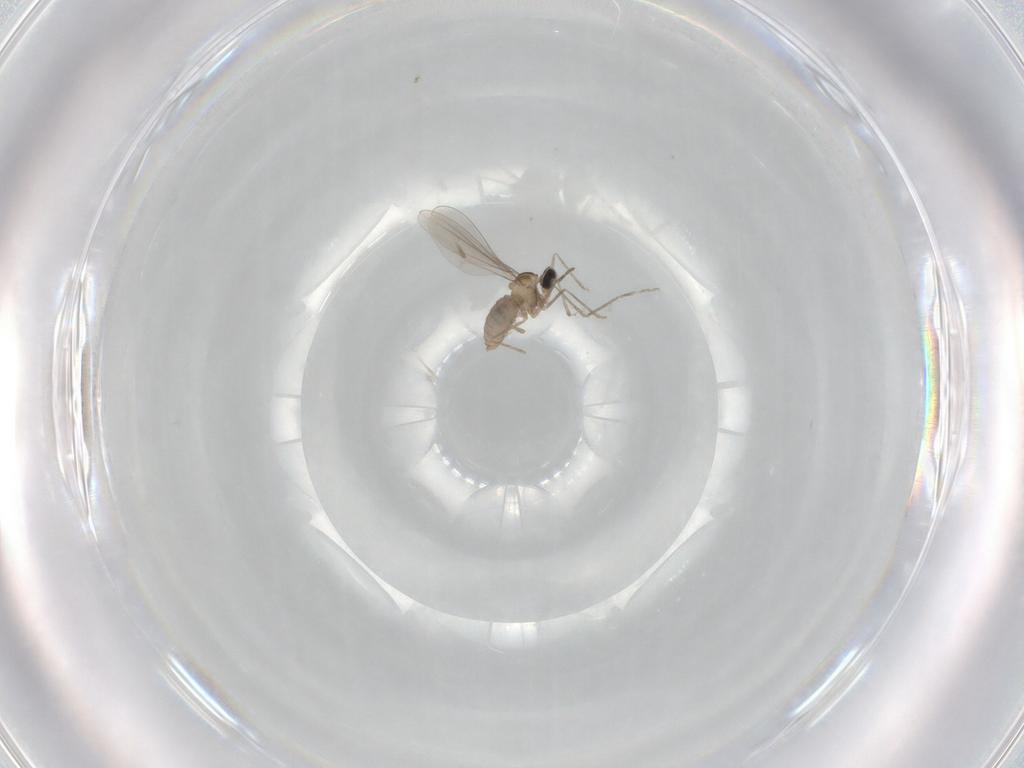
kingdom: Animalia
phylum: Arthropoda
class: Insecta
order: Diptera
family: Cecidomyiidae
